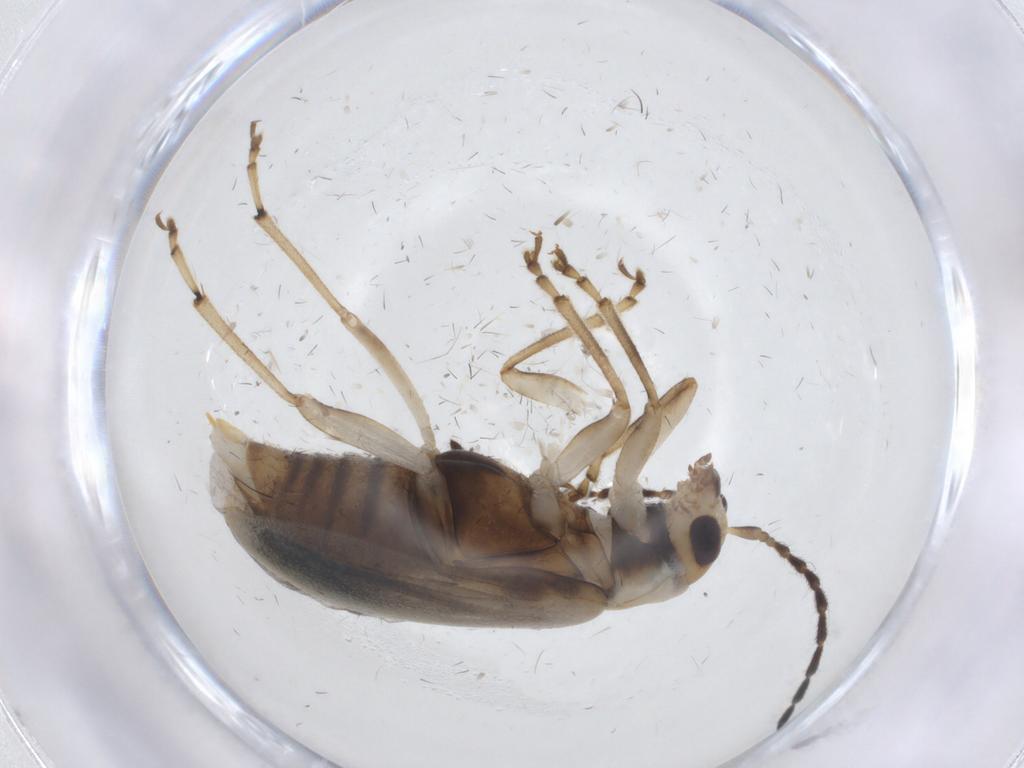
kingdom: Animalia
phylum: Arthropoda
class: Insecta
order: Coleoptera
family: Chrysomelidae
